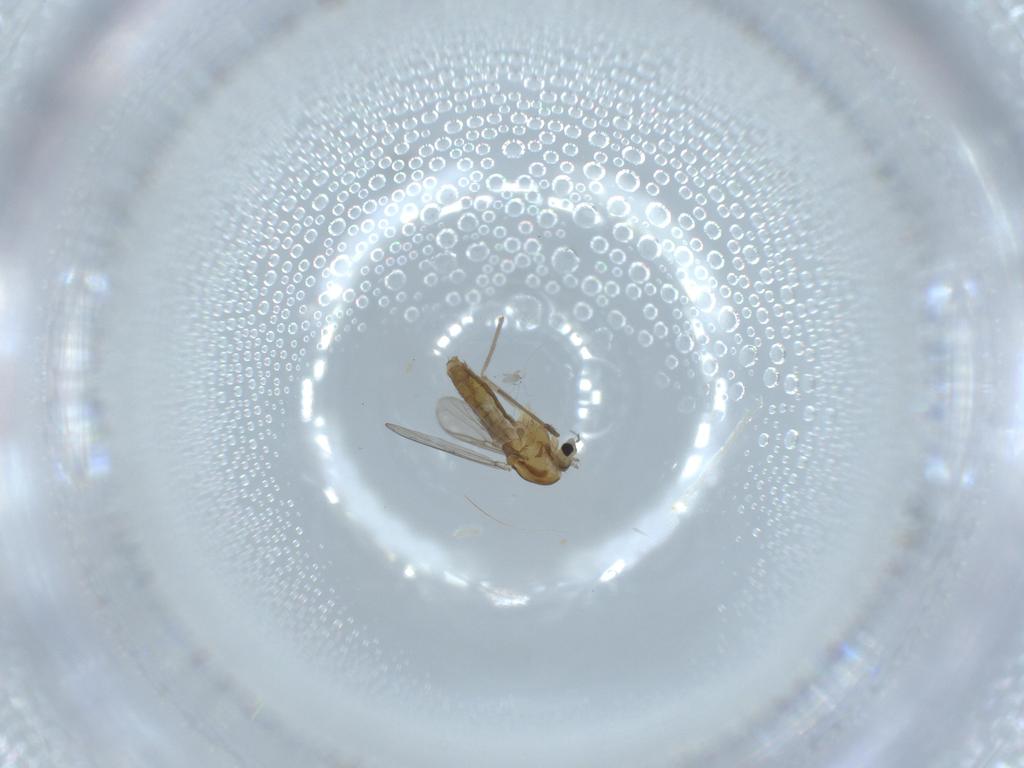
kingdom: Animalia
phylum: Arthropoda
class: Insecta
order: Diptera
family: Chironomidae
